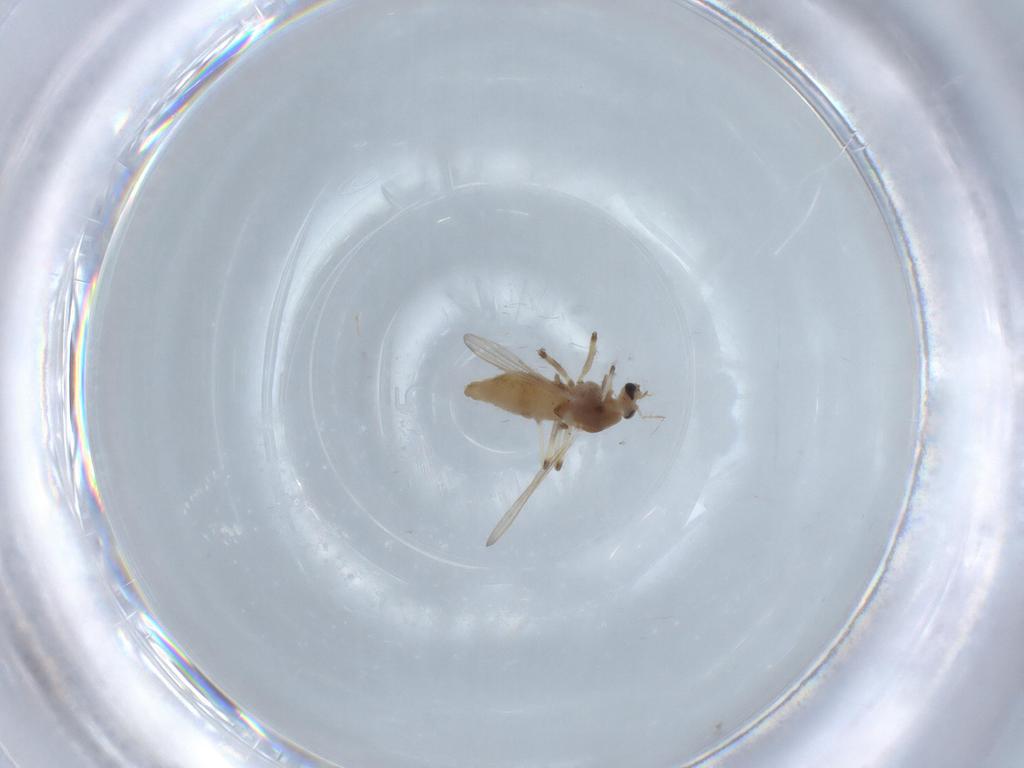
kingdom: Animalia
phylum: Arthropoda
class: Insecta
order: Diptera
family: Chironomidae
